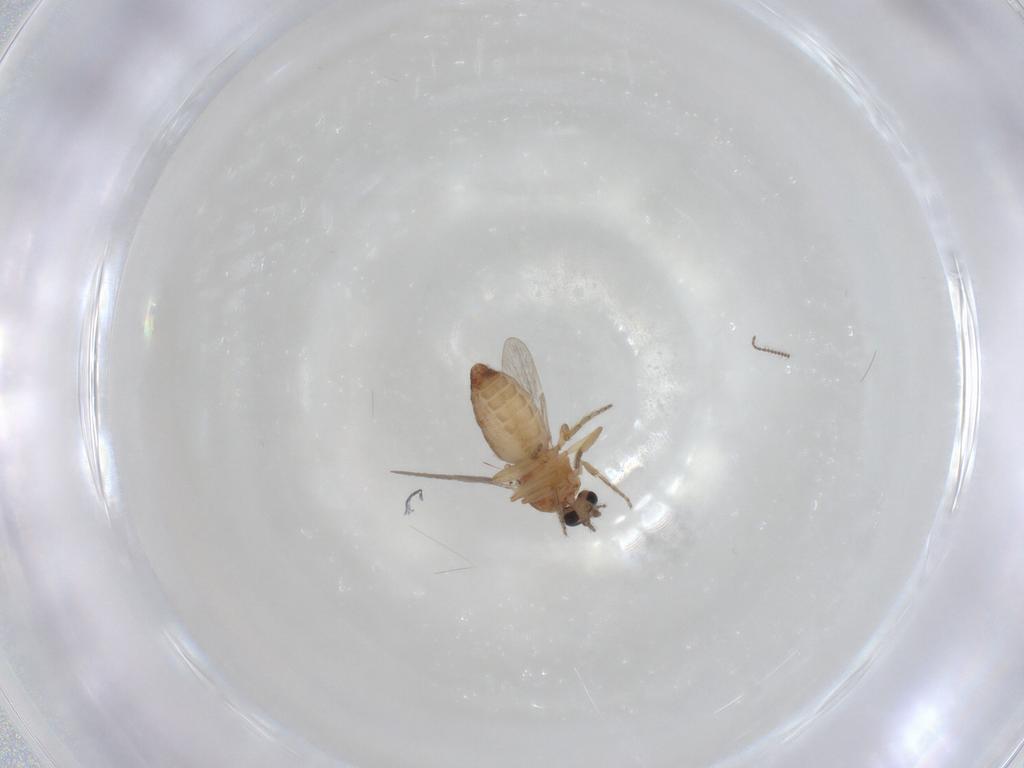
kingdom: Animalia
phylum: Arthropoda
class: Insecta
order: Diptera
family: Ceratopogonidae
